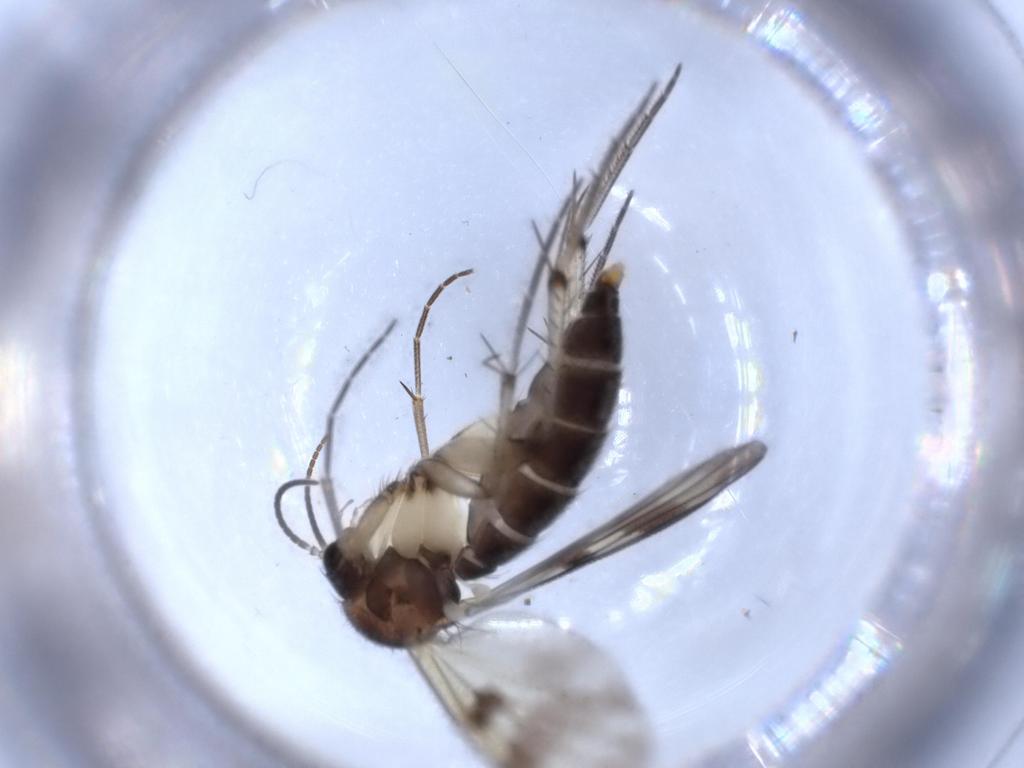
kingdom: Animalia
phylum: Arthropoda
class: Insecta
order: Diptera
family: Mycetophilidae
